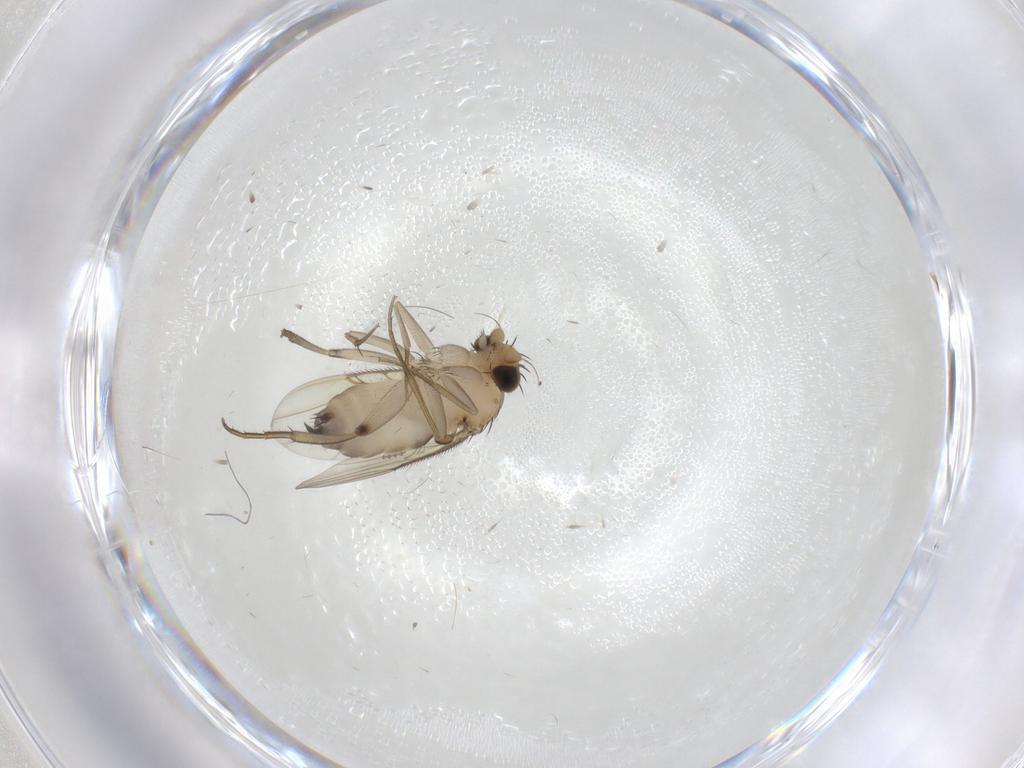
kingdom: Animalia
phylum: Arthropoda
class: Insecta
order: Diptera
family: Phoridae
